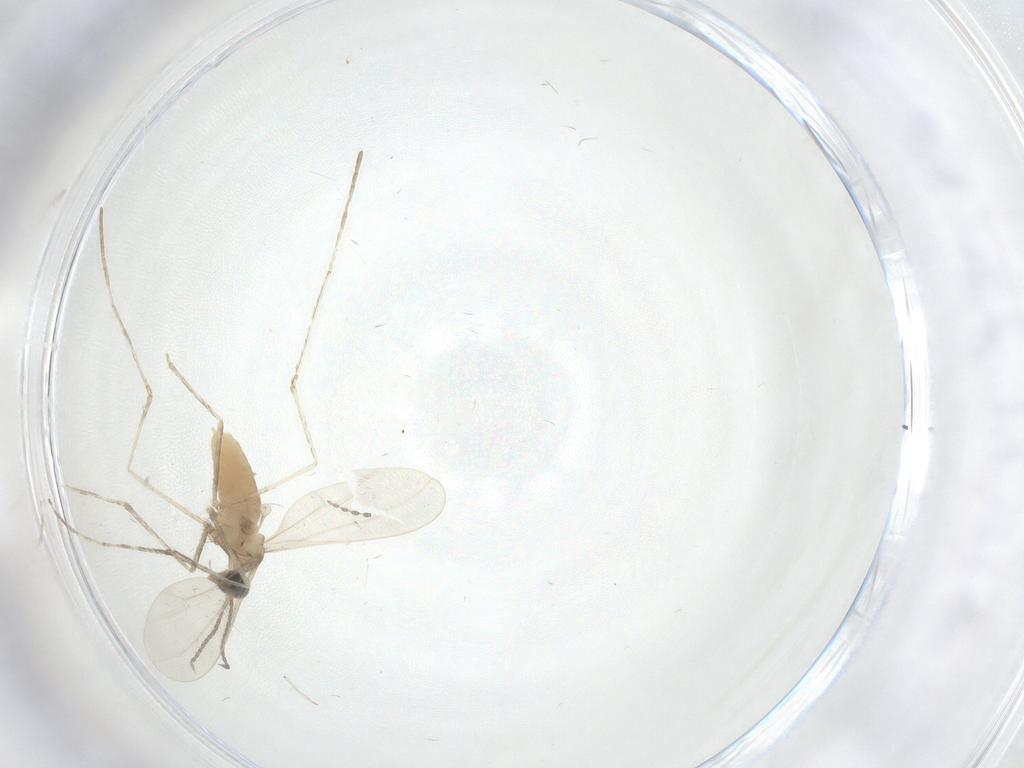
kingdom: Animalia
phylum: Arthropoda
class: Insecta
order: Diptera
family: Cecidomyiidae
